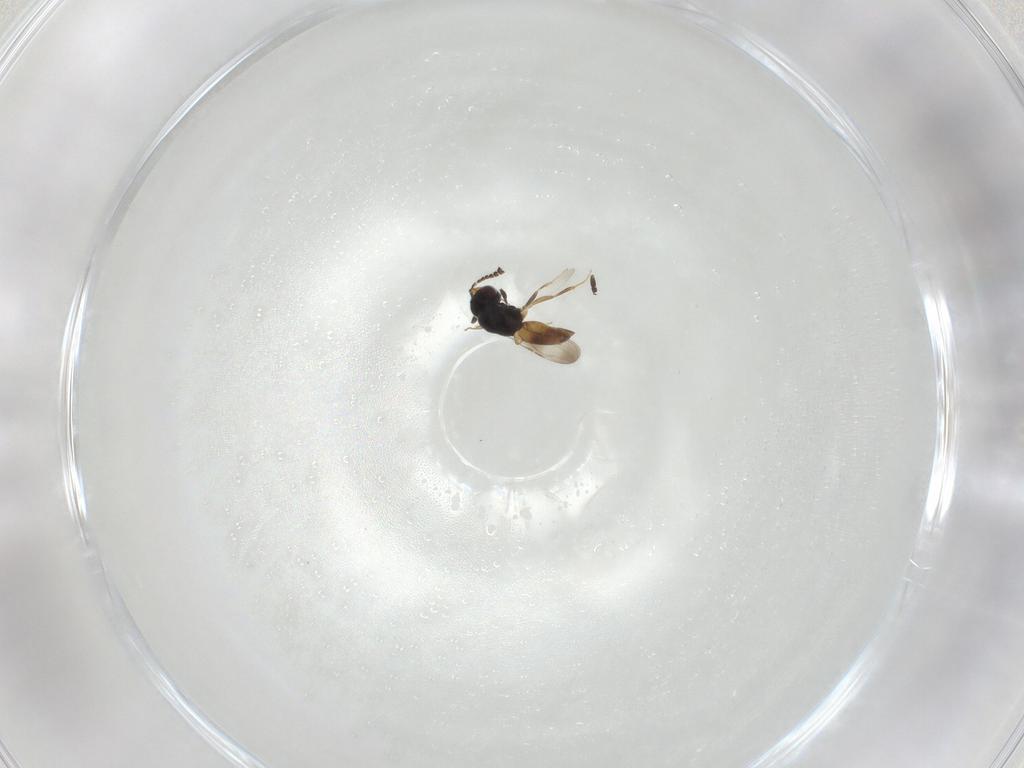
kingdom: Animalia
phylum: Arthropoda
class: Insecta
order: Hymenoptera
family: Ceraphronidae
